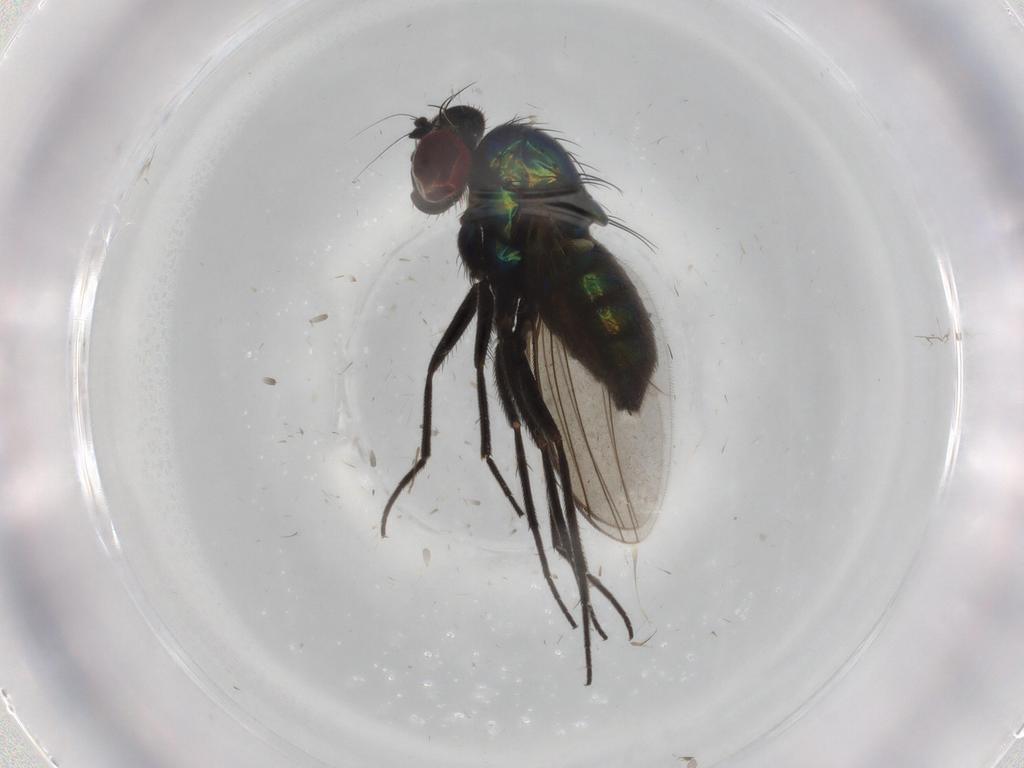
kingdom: Animalia
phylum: Arthropoda
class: Insecta
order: Diptera
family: Dolichopodidae
